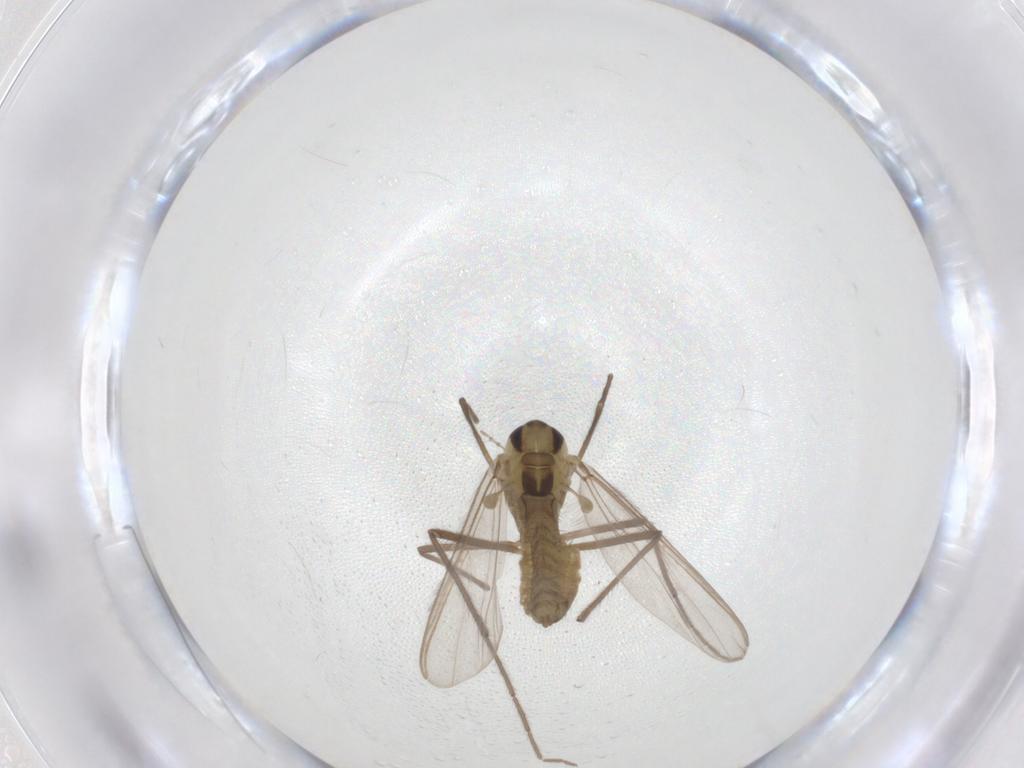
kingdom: Animalia
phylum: Arthropoda
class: Insecta
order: Diptera
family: Chironomidae
